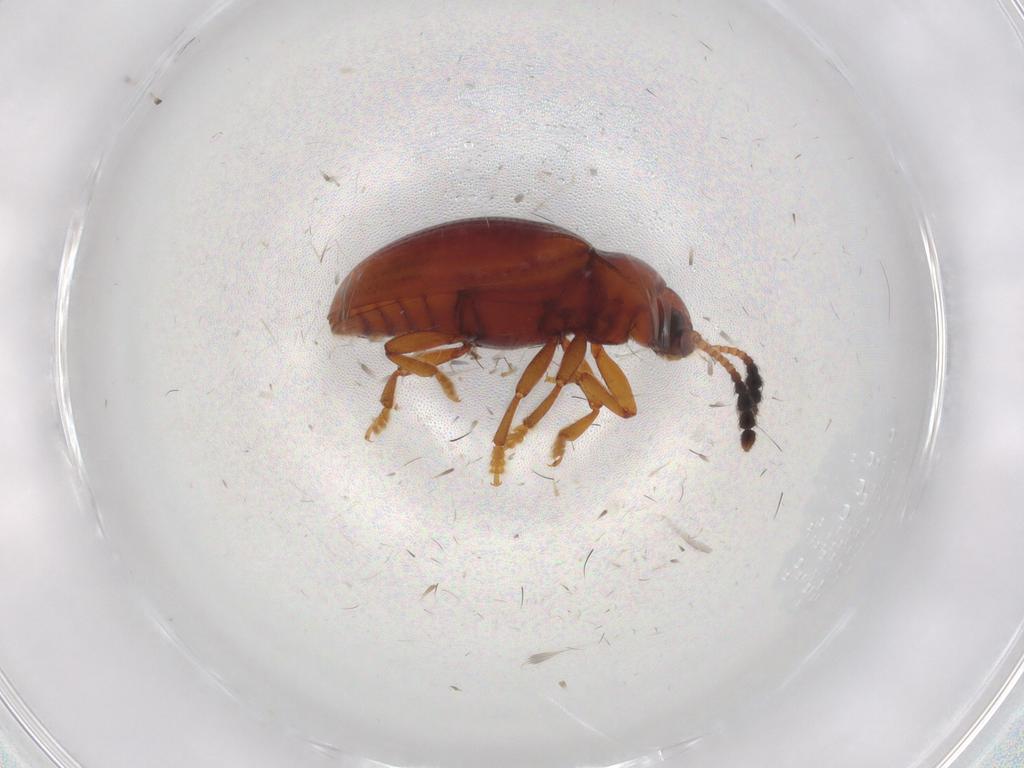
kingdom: Animalia
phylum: Arthropoda
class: Insecta
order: Coleoptera
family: Erotylidae
